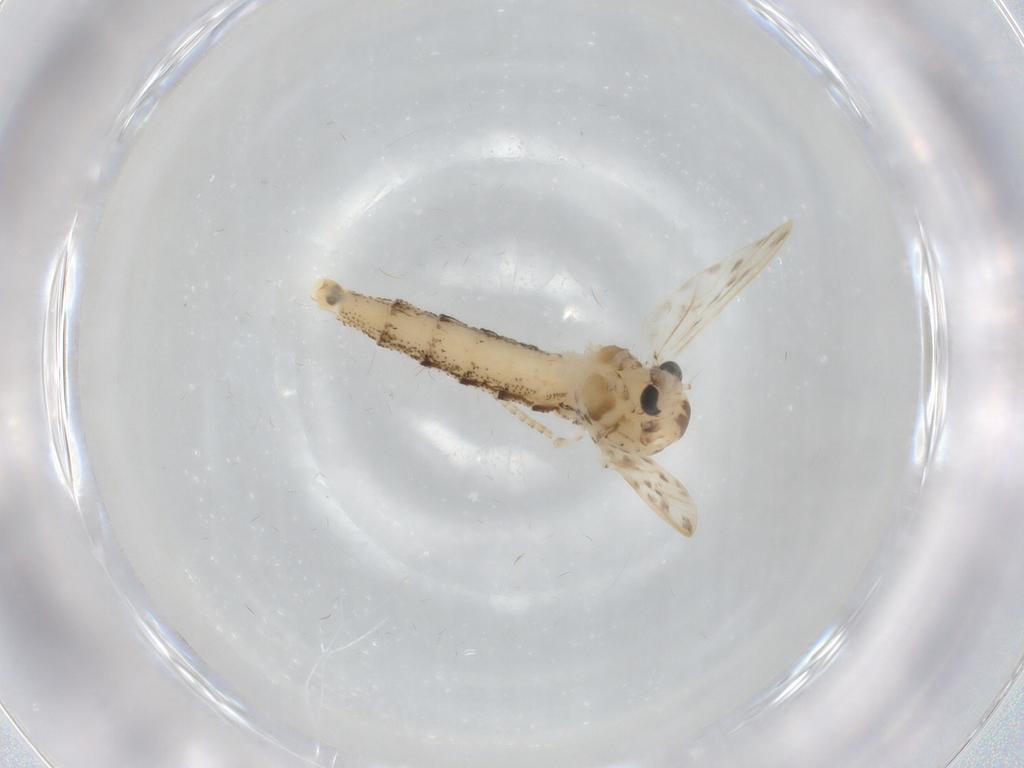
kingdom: Animalia
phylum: Arthropoda
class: Insecta
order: Diptera
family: Chaoboridae
